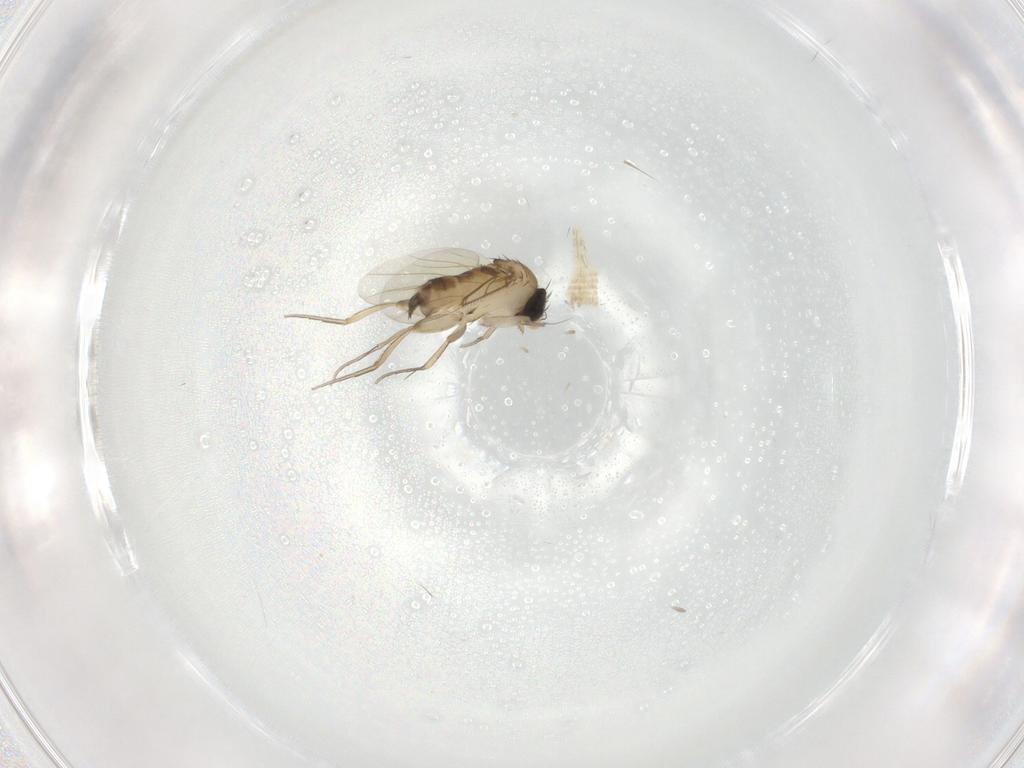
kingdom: Animalia
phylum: Arthropoda
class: Insecta
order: Diptera
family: Phoridae
